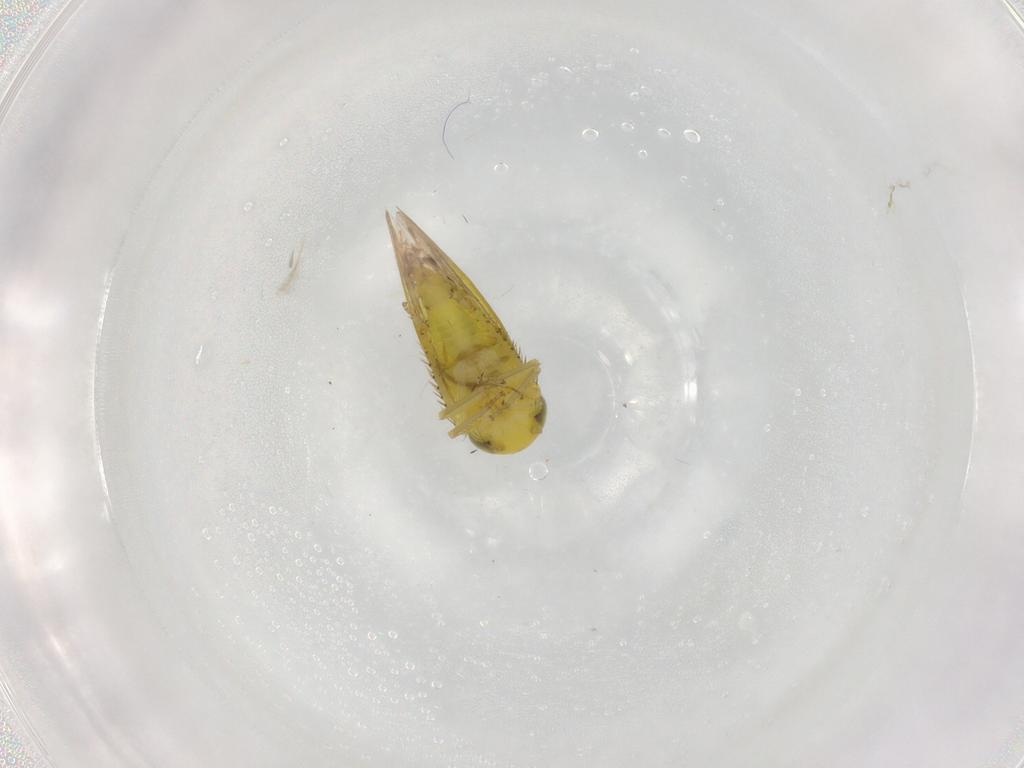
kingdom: Animalia
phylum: Arthropoda
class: Insecta
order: Hemiptera
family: Cicadellidae
